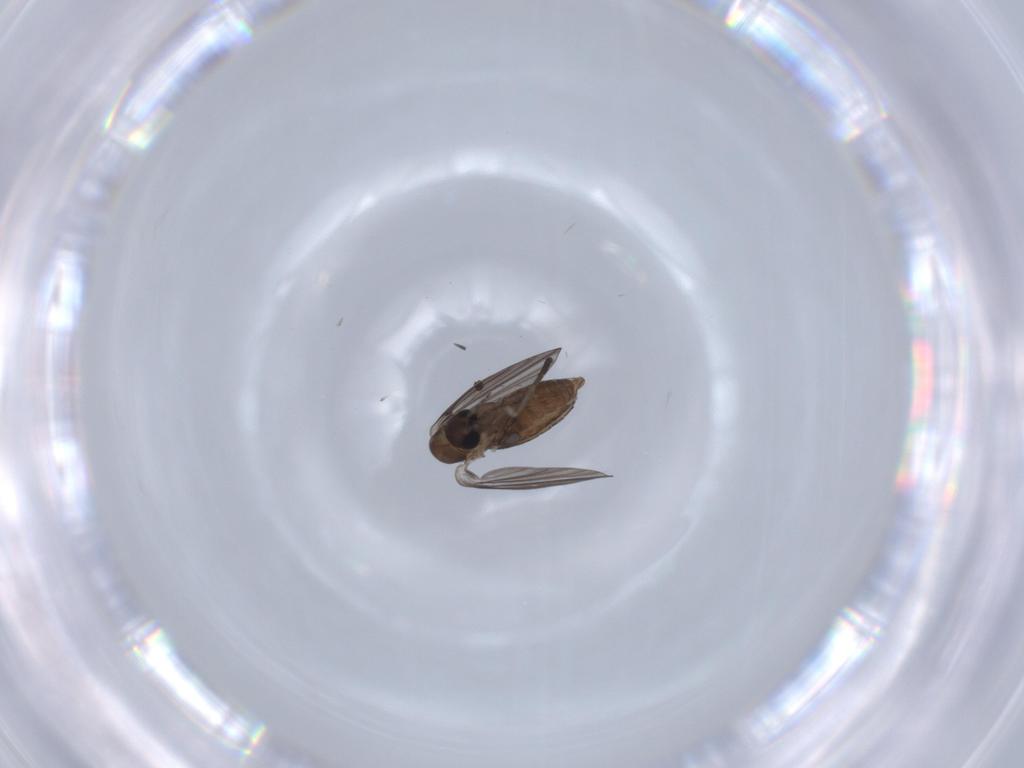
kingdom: Animalia
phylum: Arthropoda
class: Insecta
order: Diptera
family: Psychodidae
